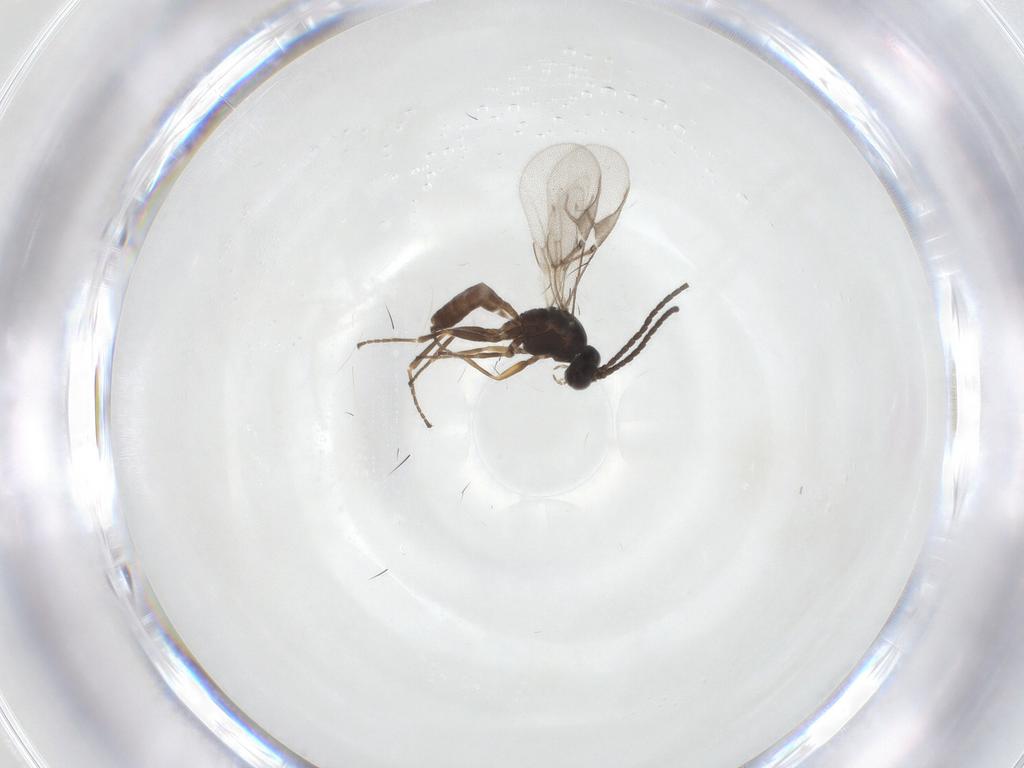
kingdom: Animalia
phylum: Arthropoda
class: Insecta
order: Hymenoptera
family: Braconidae
